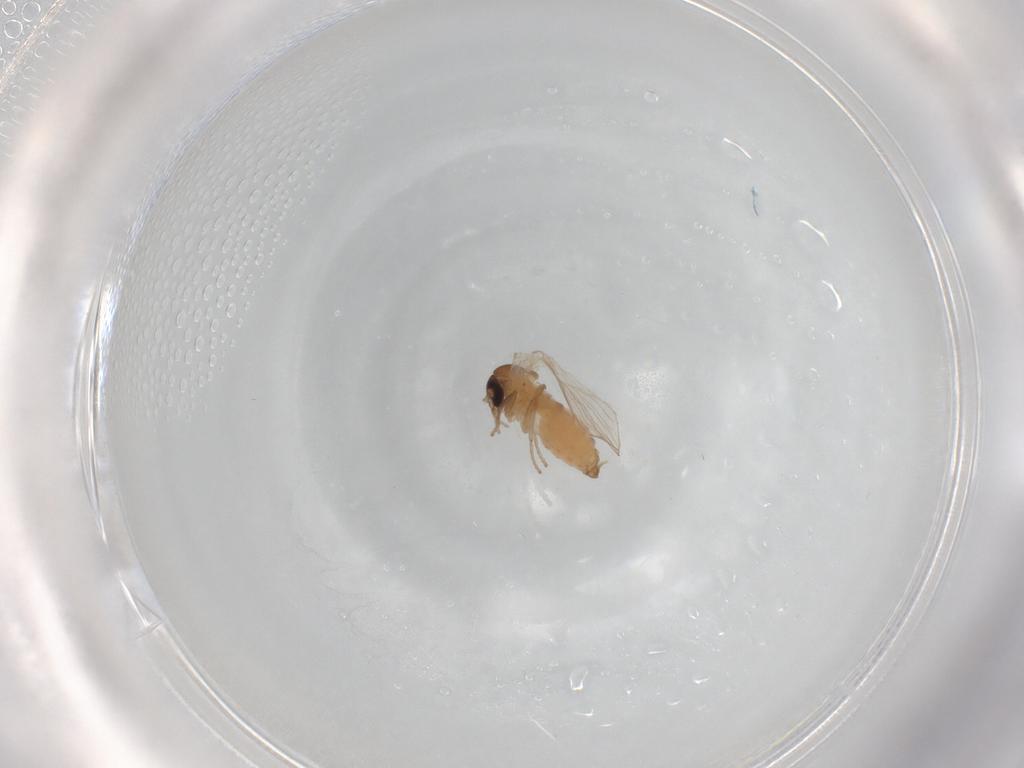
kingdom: Animalia
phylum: Arthropoda
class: Insecta
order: Diptera
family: Psychodidae
